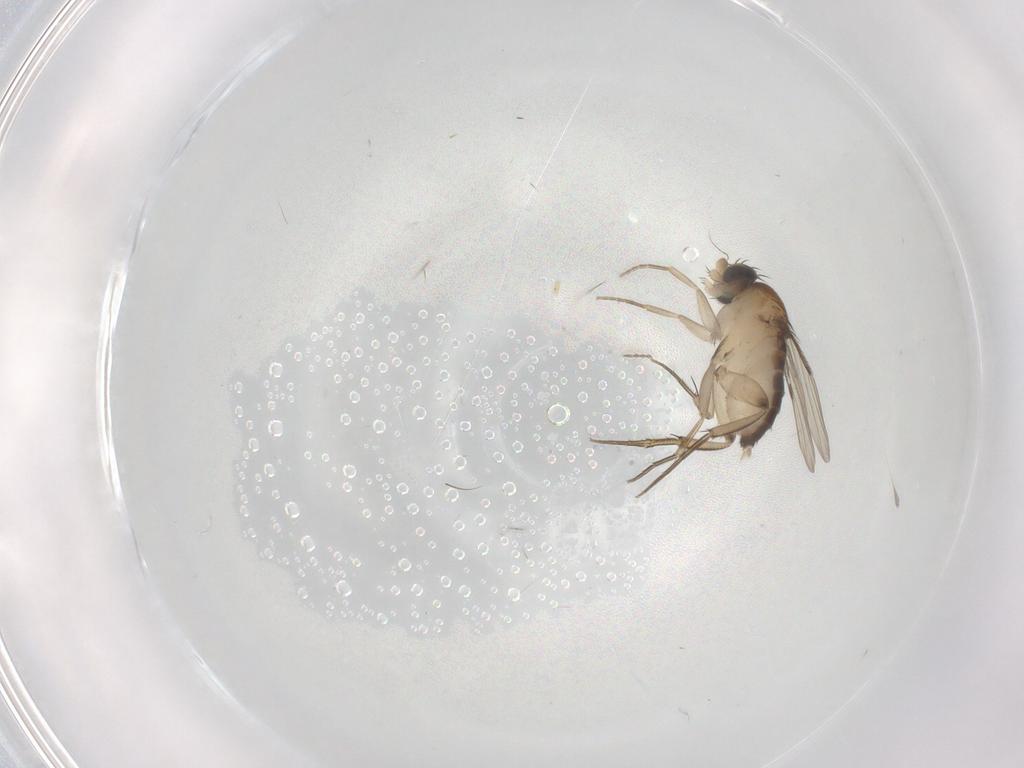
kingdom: Animalia
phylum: Arthropoda
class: Insecta
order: Diptera
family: Phoridae
